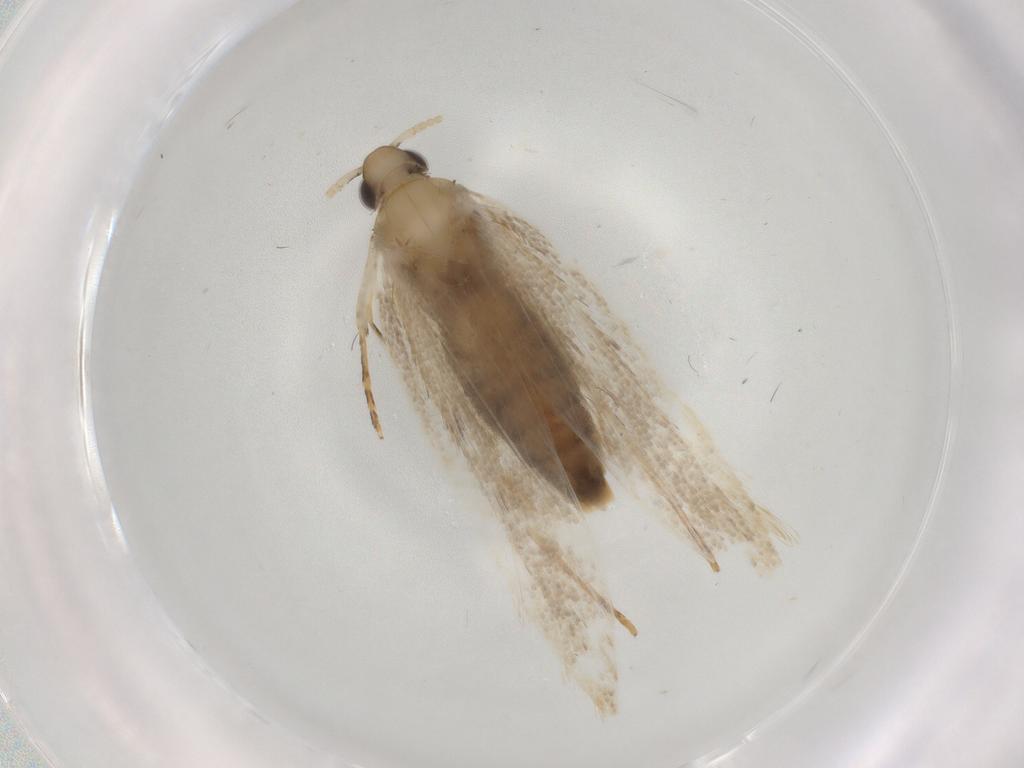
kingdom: Animalia
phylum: Arthropoda
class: Insecta
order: Lepidoptera
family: Lecithoceridae
